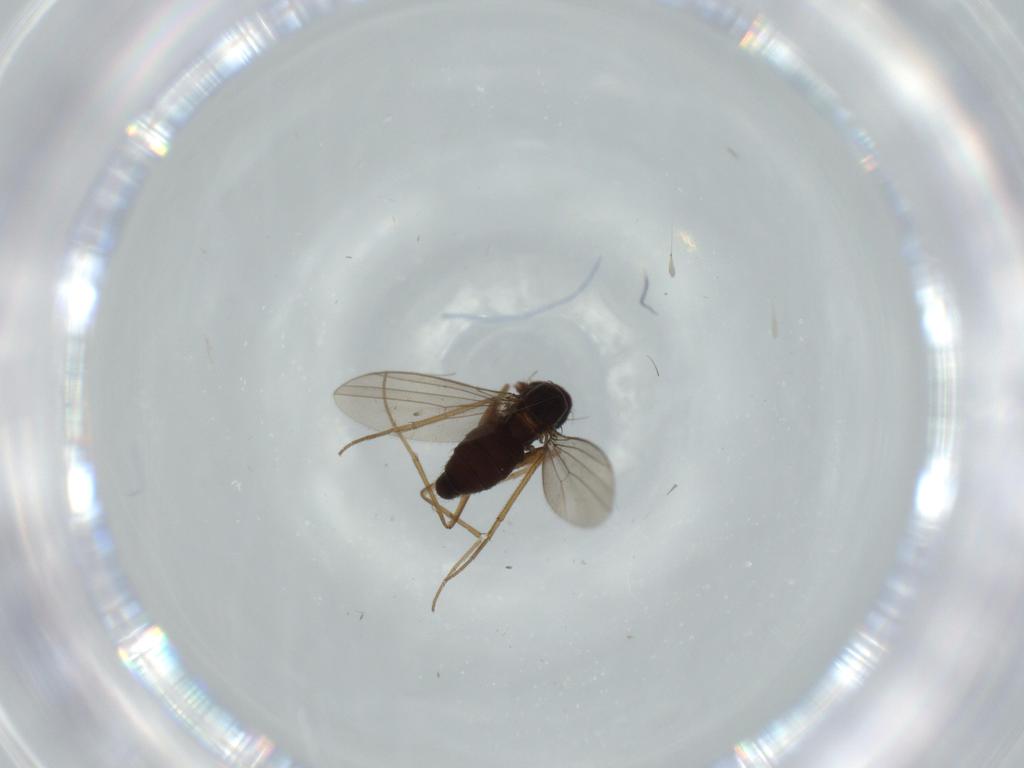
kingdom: Animalia
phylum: Arthropoda
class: Insecta
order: Diptera
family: Dolichopodidae
